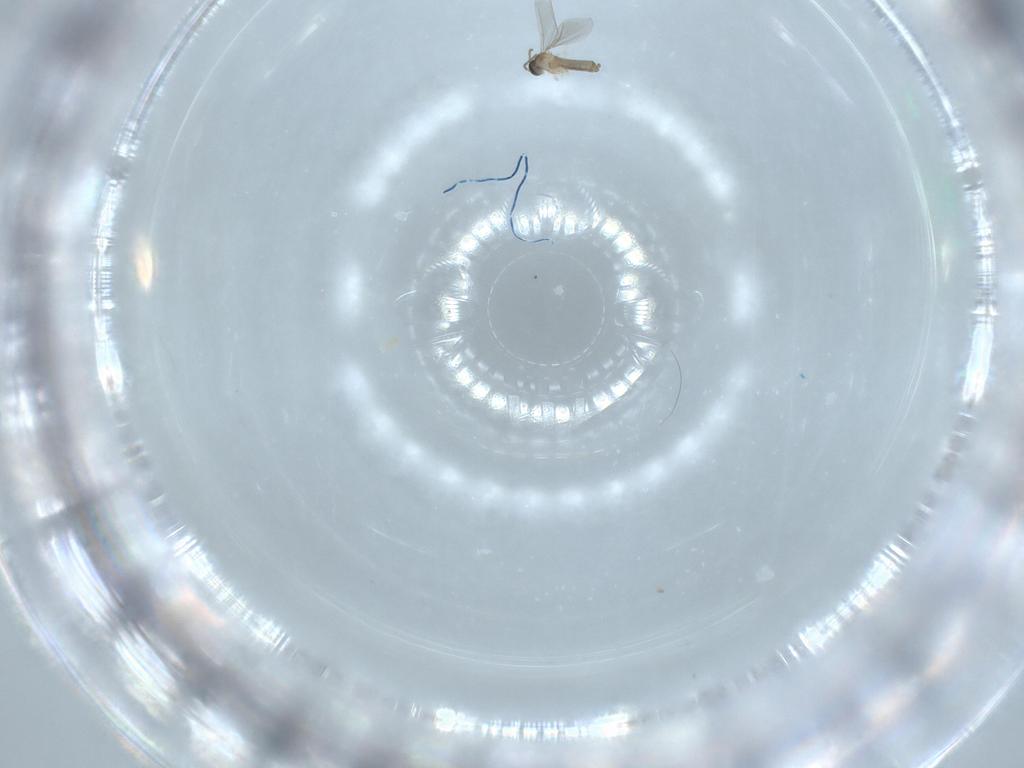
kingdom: Animalia
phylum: Arthropoda
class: Insecta
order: Diptera
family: Cecidomyiidae
